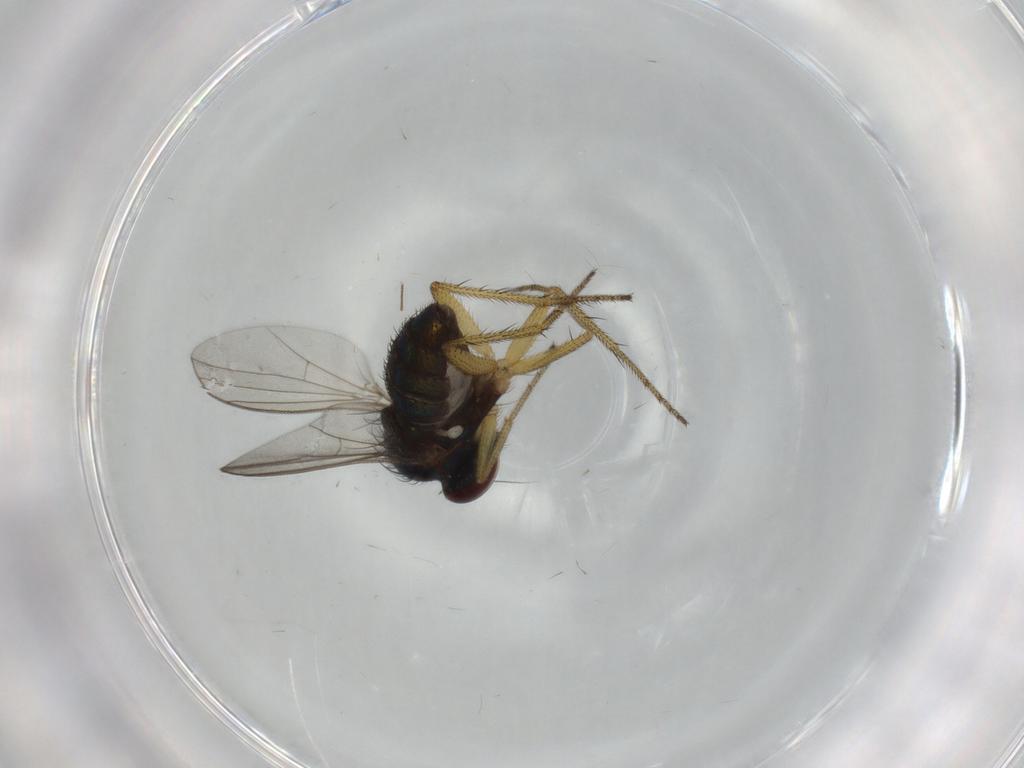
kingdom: Animalia
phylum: Arthropoda
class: Insecta
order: Diptera
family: Dolichopodidae
